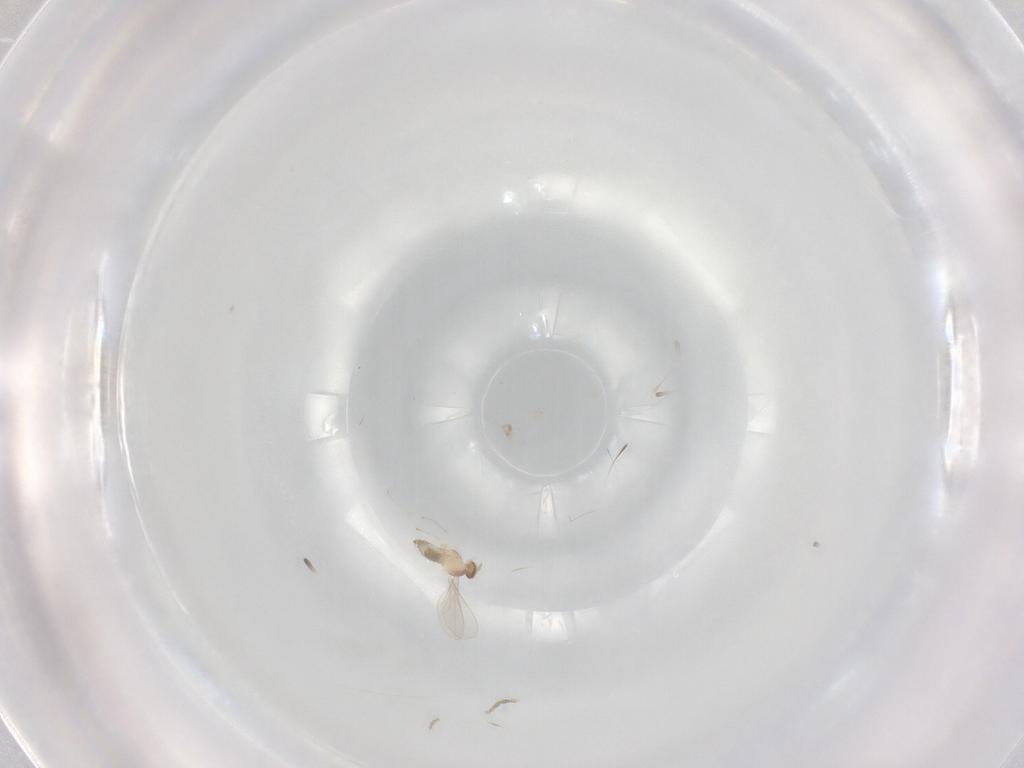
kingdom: Animalia
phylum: Arthropoda
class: Insecta
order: Diptera
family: Cecidomyiidae
